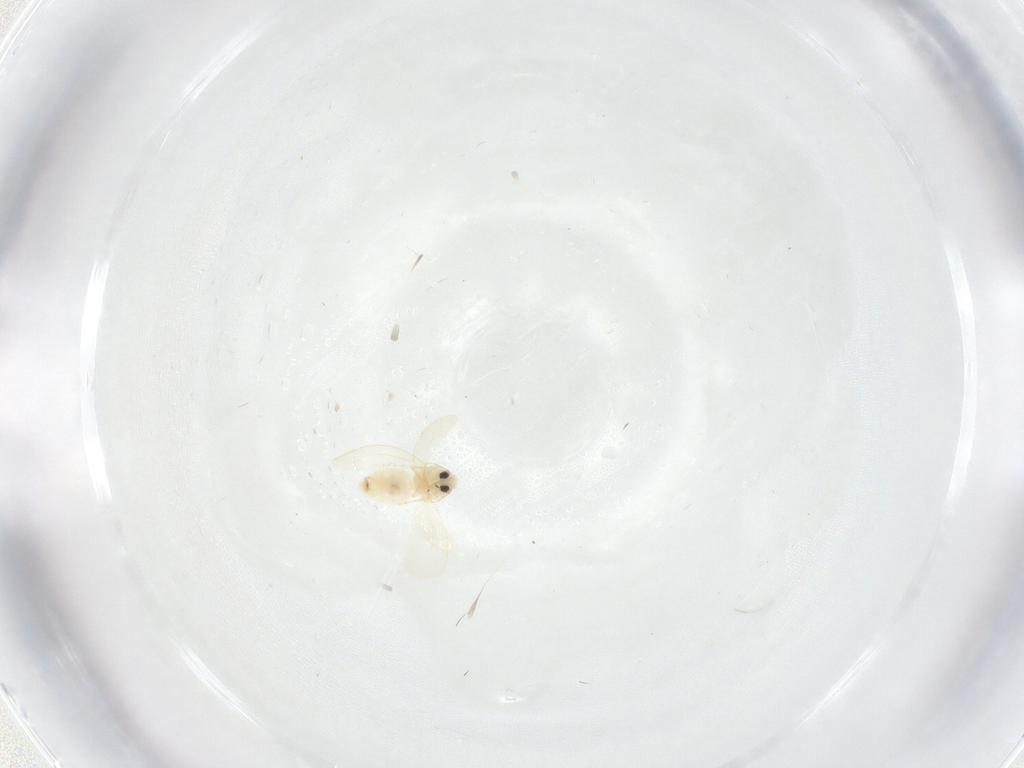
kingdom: Animalia
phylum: Arthropoda
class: Insecta
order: Hemiptera
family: Aleyrodidae
